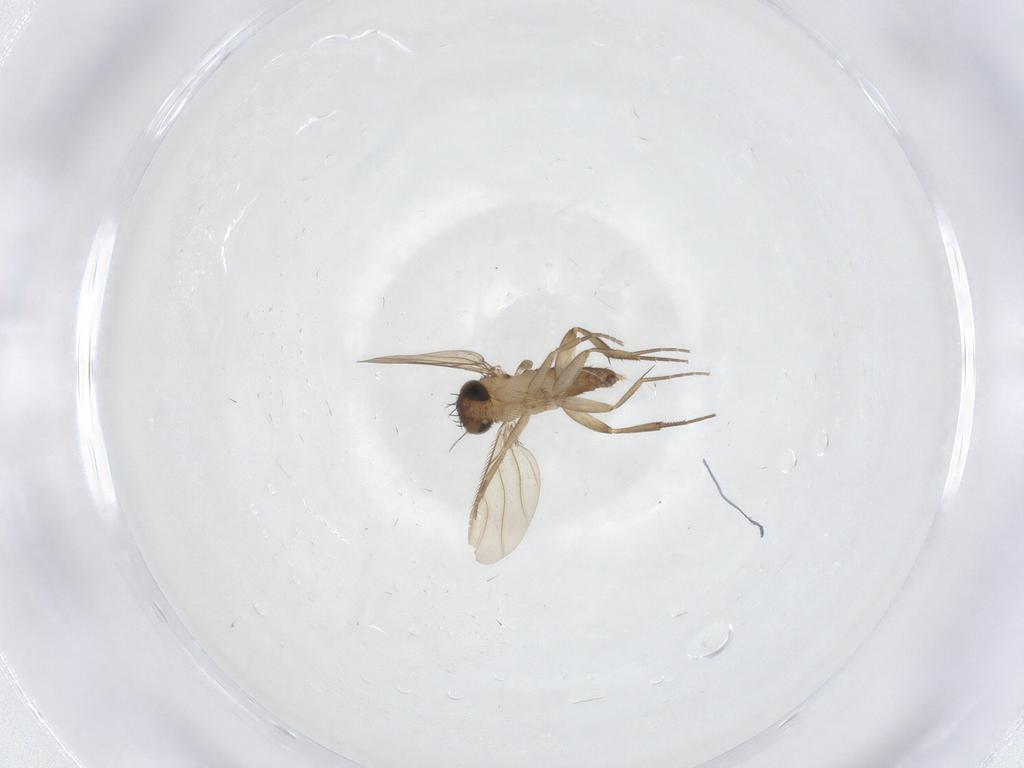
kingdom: Animalia
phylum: Arthropoda
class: Insecta
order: Diptera
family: Phoridae
